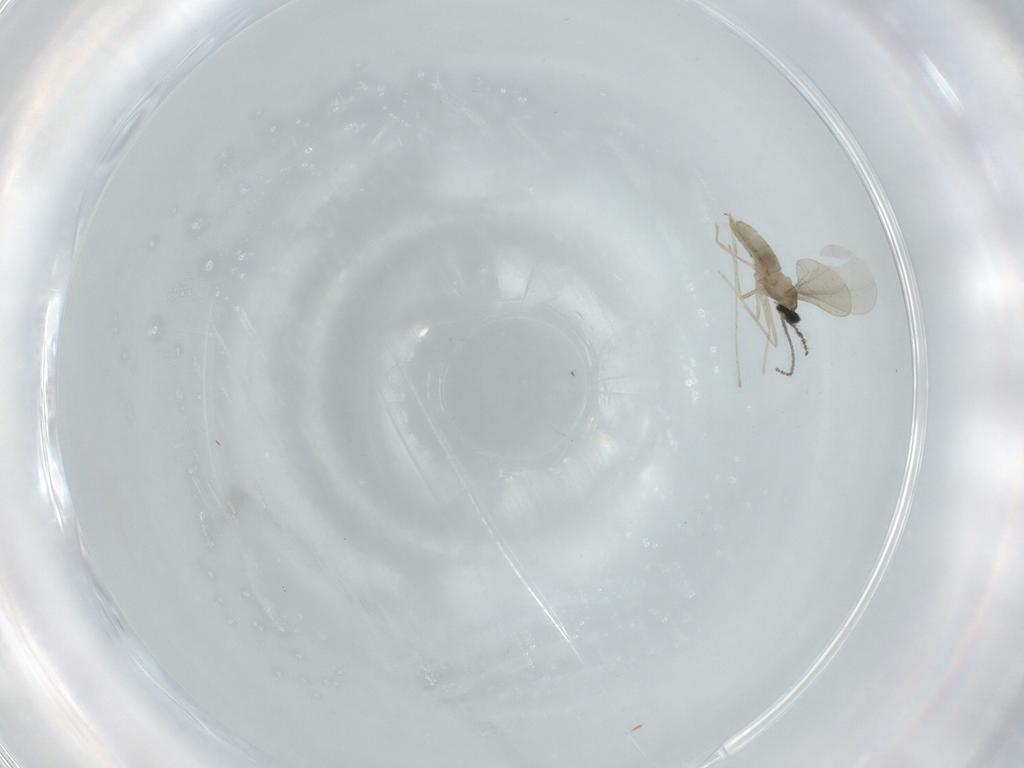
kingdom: Animalia
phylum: Arthropoda
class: Insecta
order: Diptera
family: Cecidomyiidae
